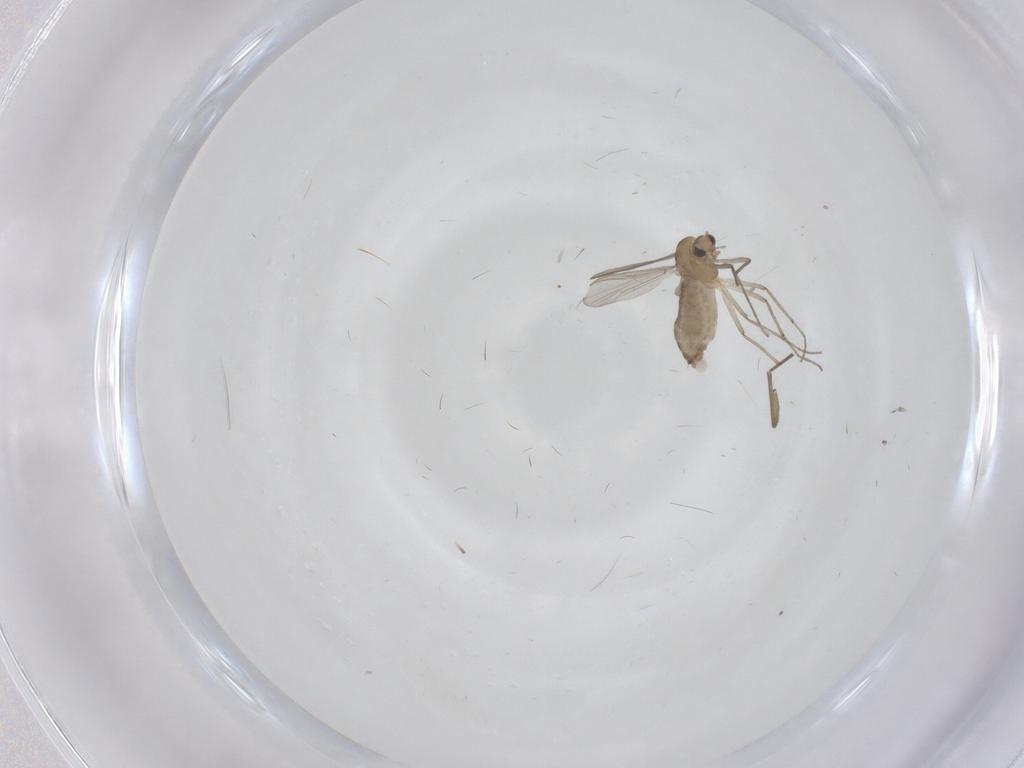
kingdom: Animalia
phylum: Arthropoda
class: Insecta
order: Diptera
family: Chironomidae
